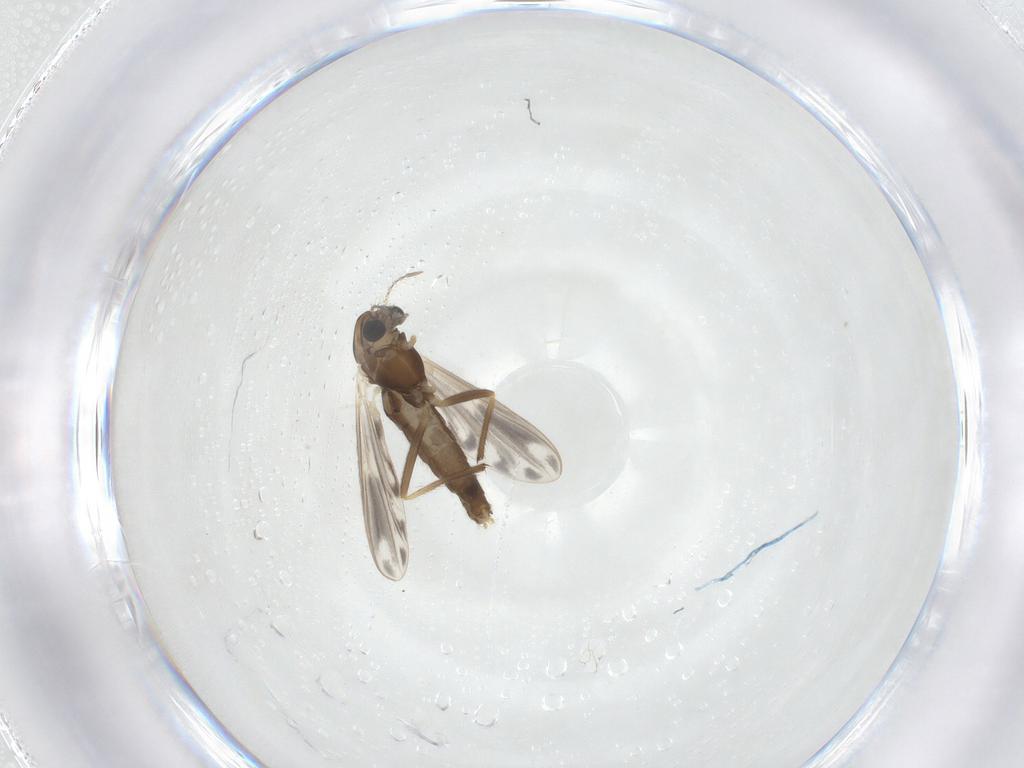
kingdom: Animalia
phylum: Arthropoda
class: Insecta
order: Diptera
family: Chironomidae
